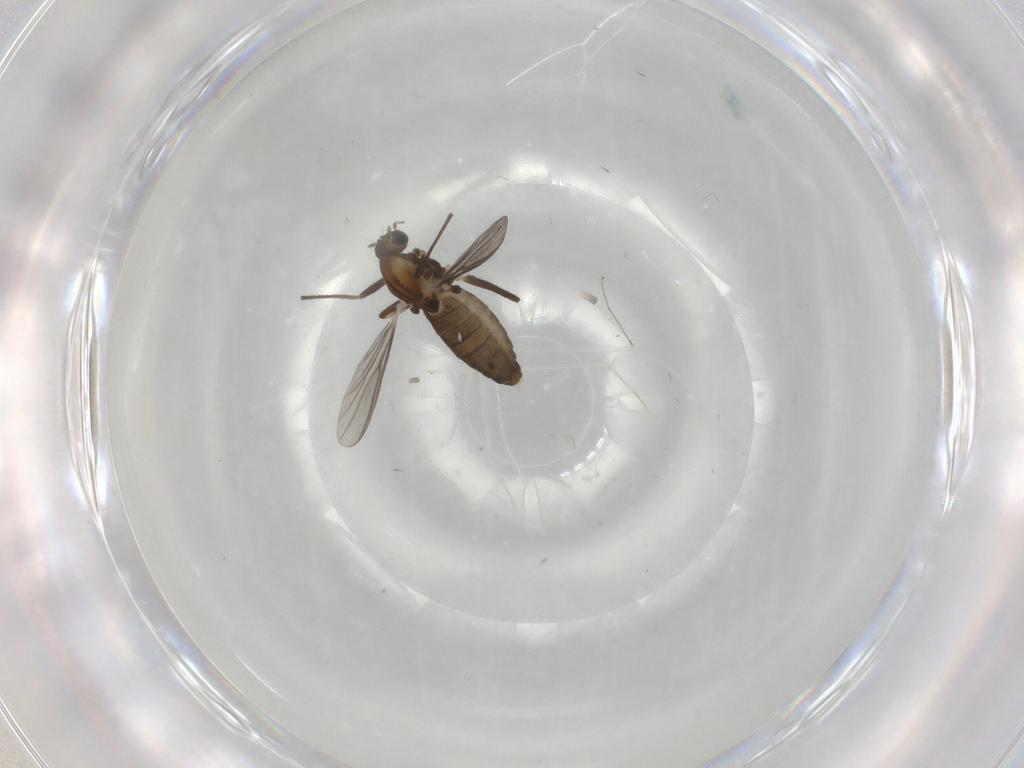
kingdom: Animalia
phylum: Arthropoda
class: Insecta
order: Diptera
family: Chironomidae
